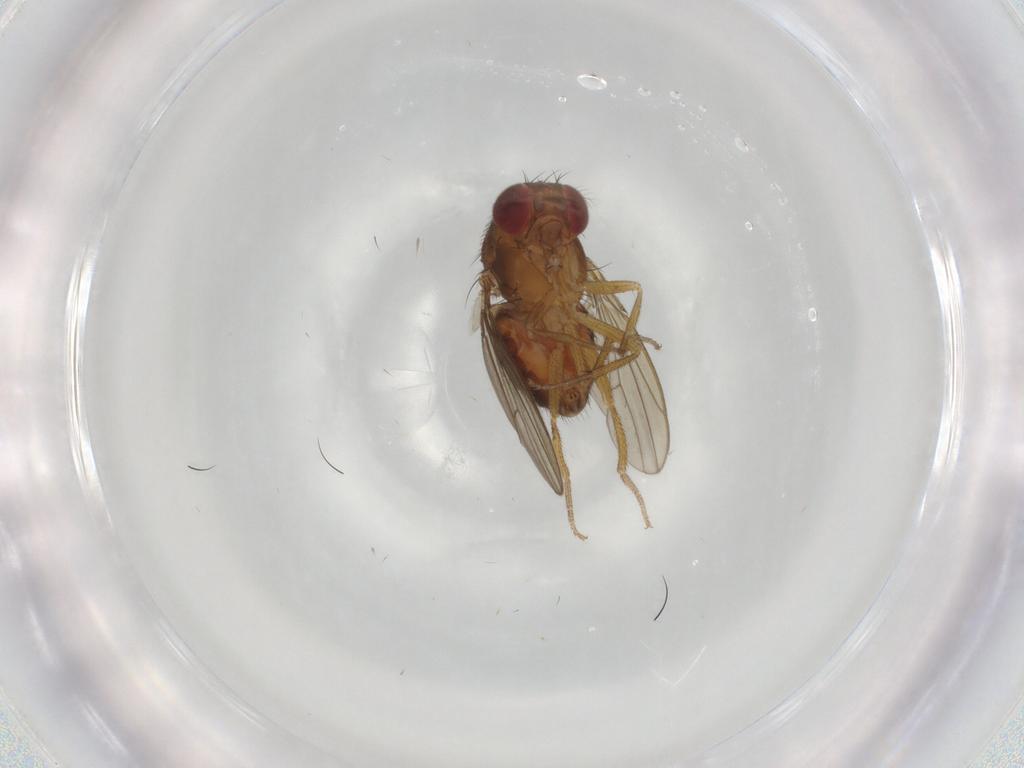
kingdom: Animalia
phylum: Arthropoda
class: Insecta
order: Diptera
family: Drosophilidae
